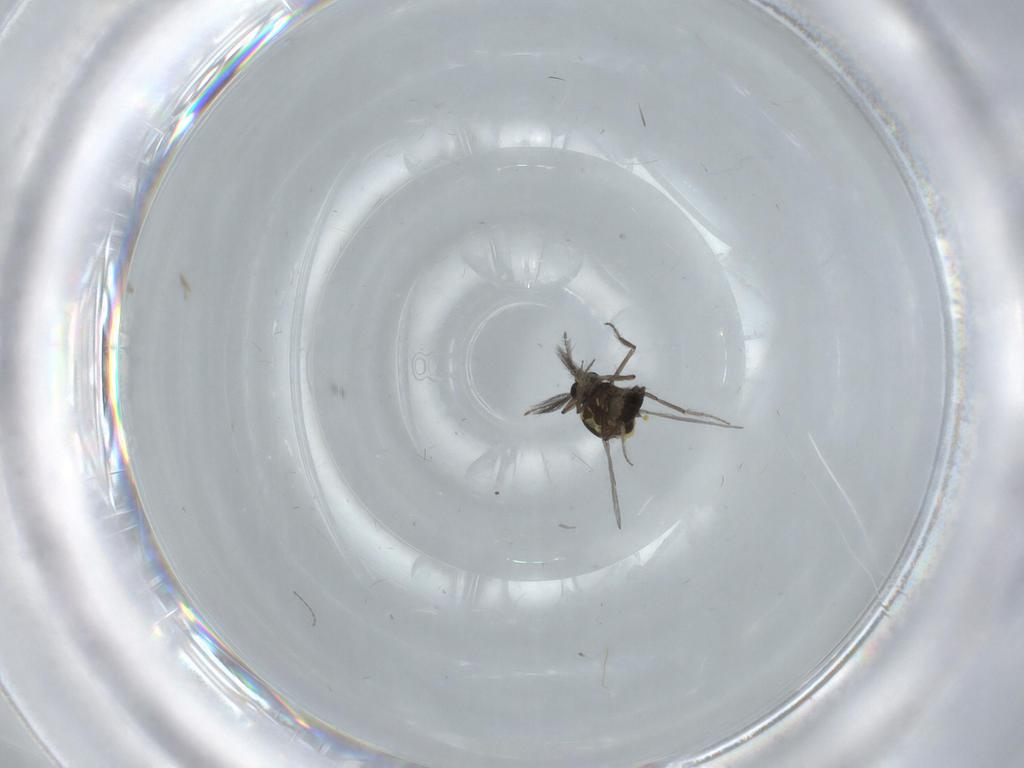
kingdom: Animalia
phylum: Arthropoda
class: Insecta
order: Diptera
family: Ceratopogonidae
